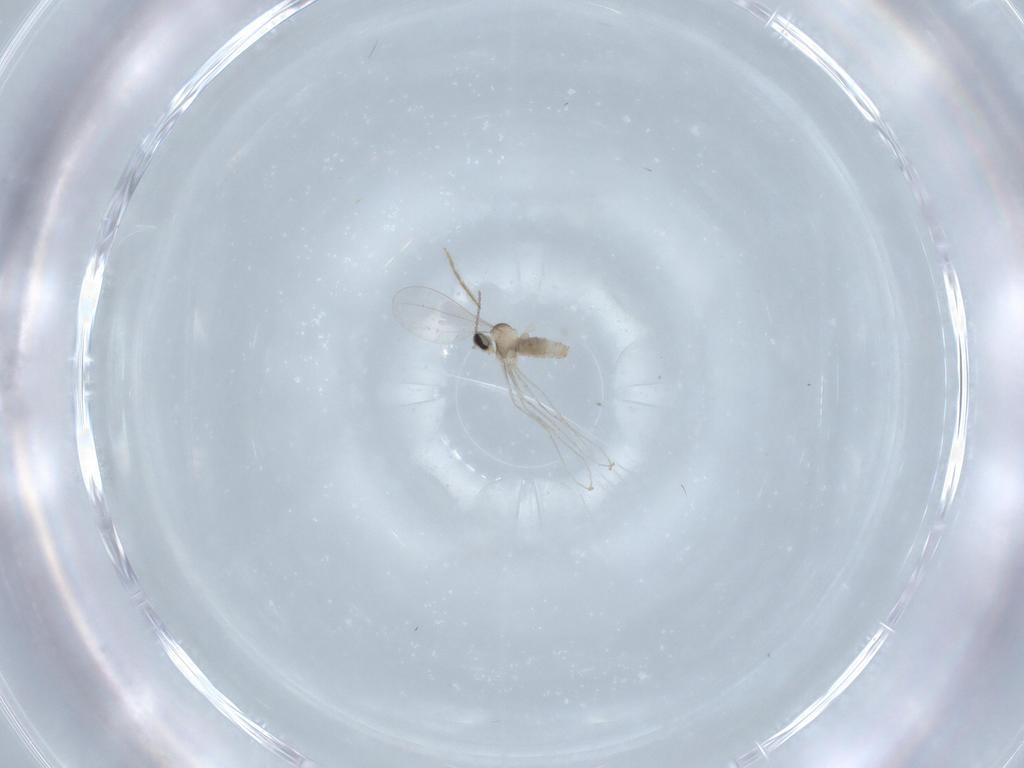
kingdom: Animalia
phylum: Arthropoda
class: Insecta
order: Diptera
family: Cecidomyiidae
